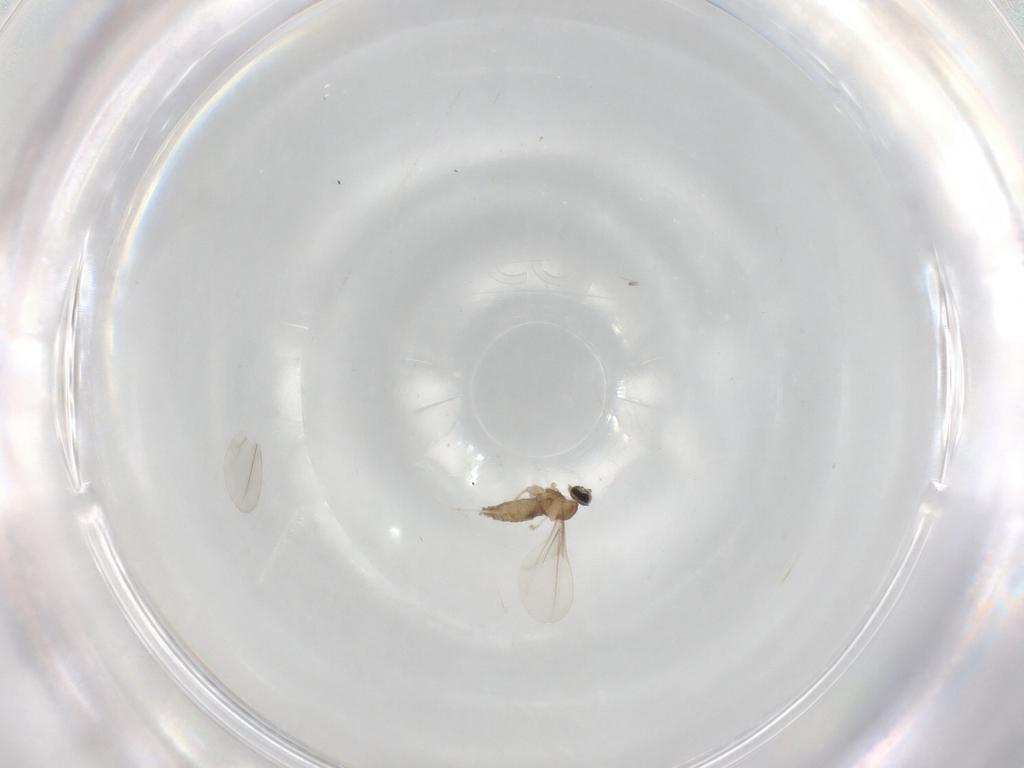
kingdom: Animalia
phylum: Arthropoda
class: Insecta
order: Diptera
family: Cecidomyiidae
